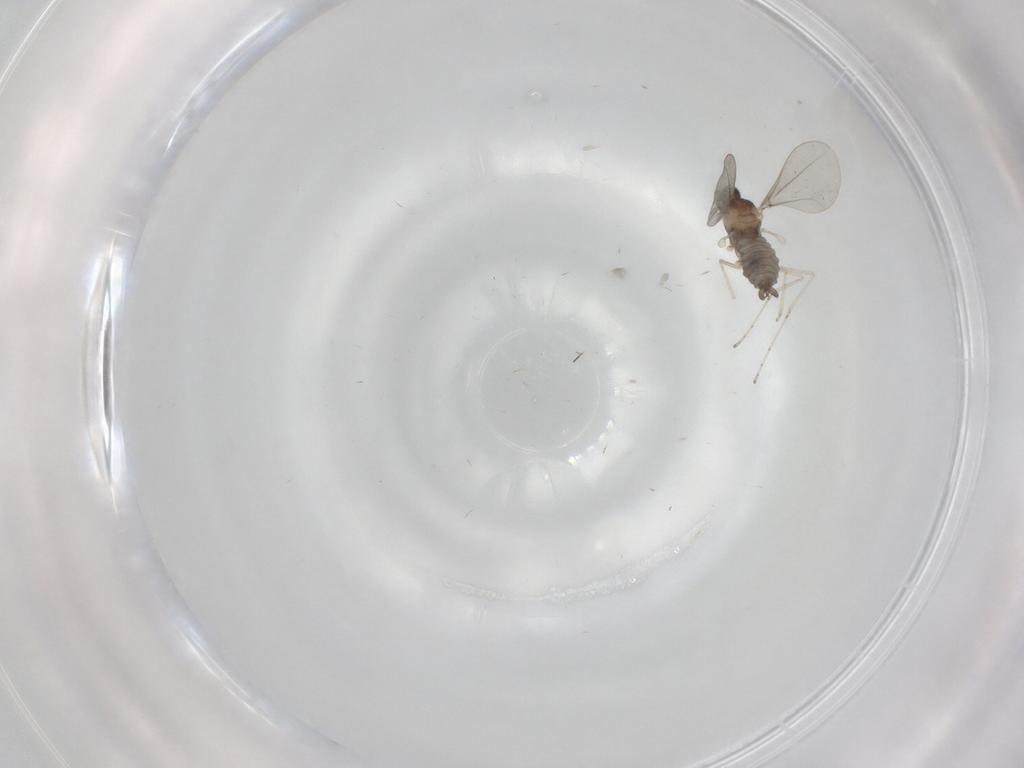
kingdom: Animalia
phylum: Arthropoda
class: Insecta
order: Diptera
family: Cecidomyiidae
